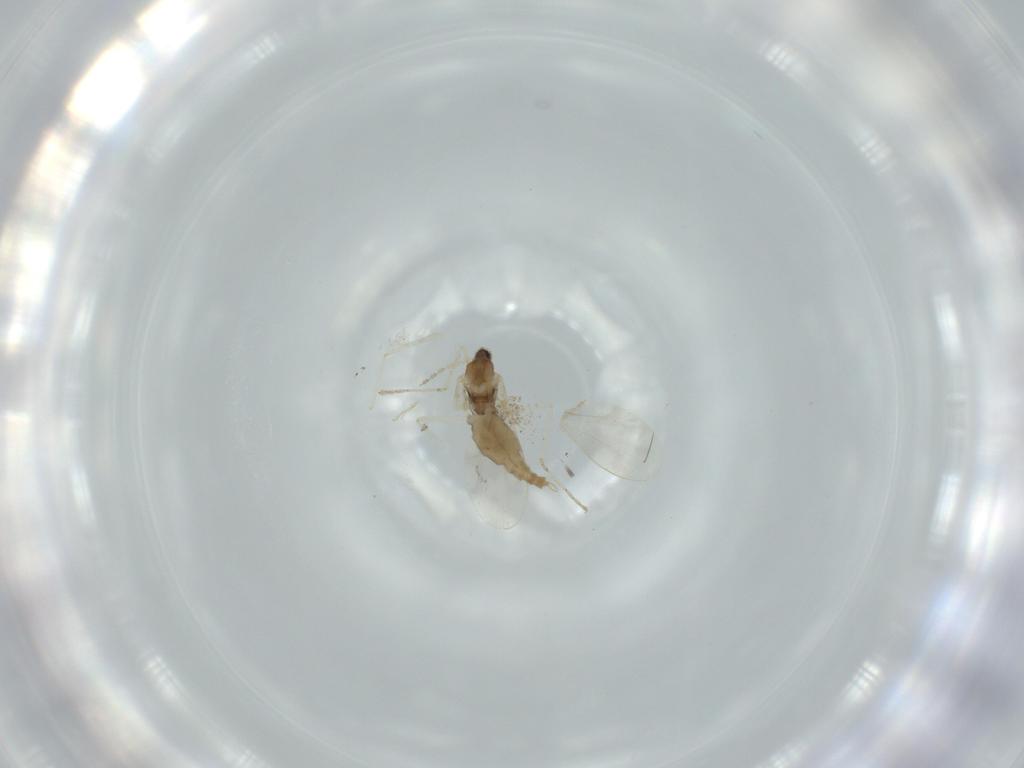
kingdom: Animalia
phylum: Arthropoda
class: Insecta
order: Diptera
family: Cecidomyiidae
